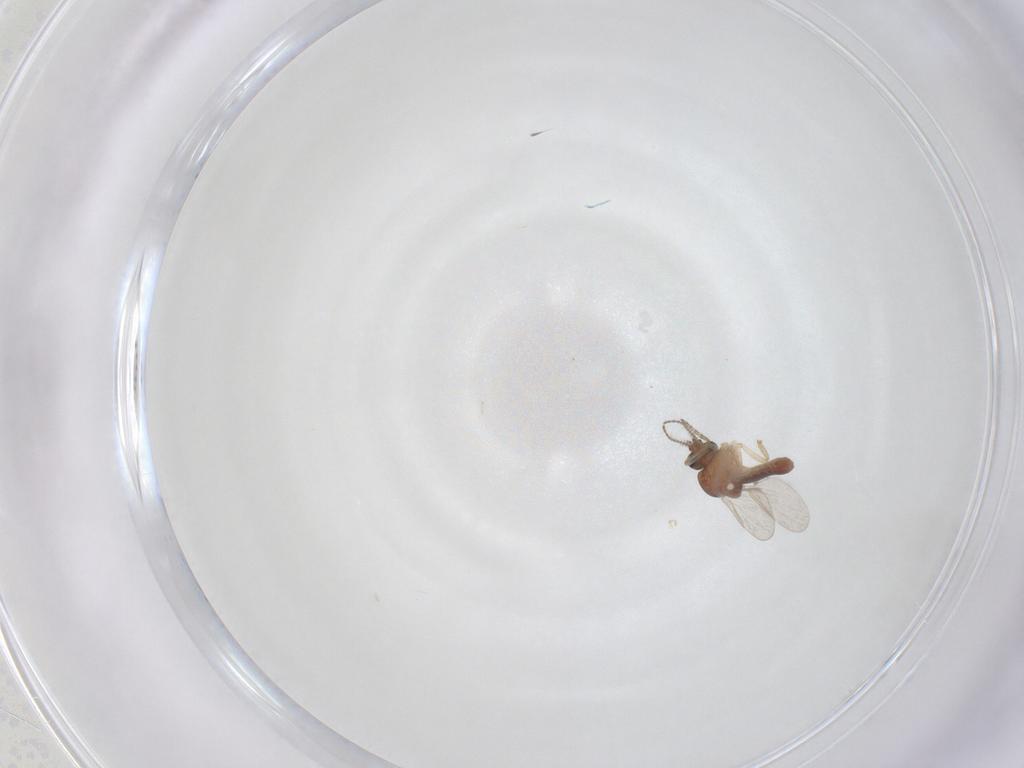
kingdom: Animalia
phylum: Arthropoda
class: Insecta
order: Diptera
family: Ceratopogonidae
